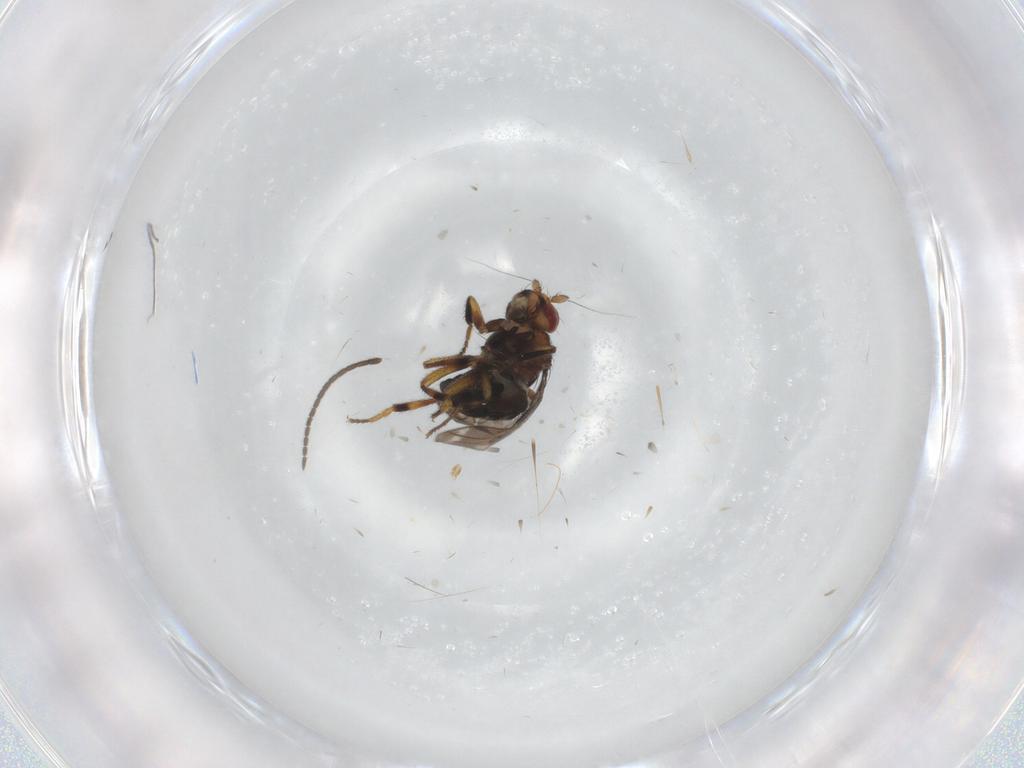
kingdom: Animalia
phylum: Arthropoda
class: Insecta
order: Diptera
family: Sphaeroceridae
